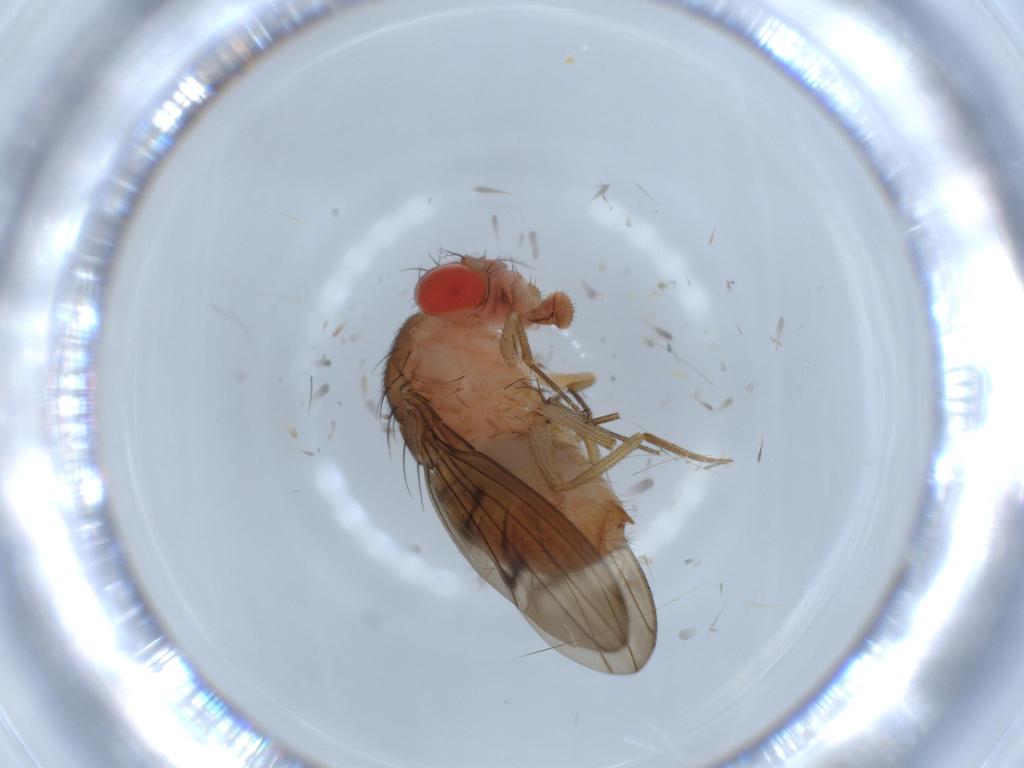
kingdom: Animalia
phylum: Arthropoda
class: Insecta
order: Diptera
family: Drosophilidae
